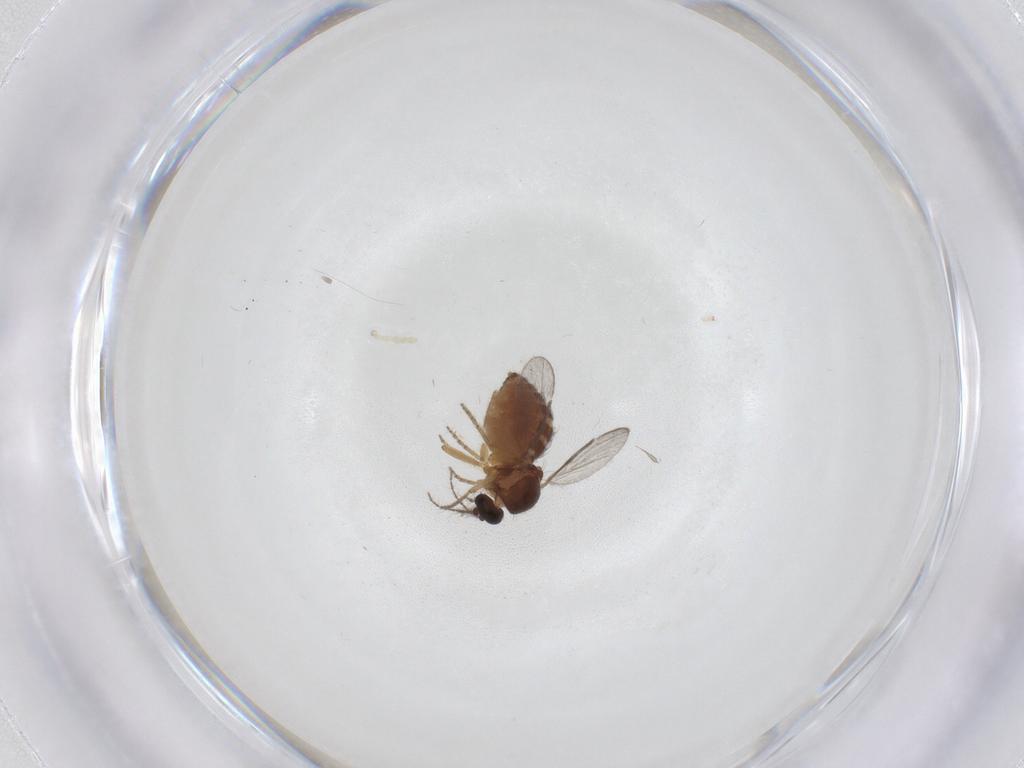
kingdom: Animalia
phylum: Arthropoda
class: Insecta
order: Diptera
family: Ceratopogonidae
